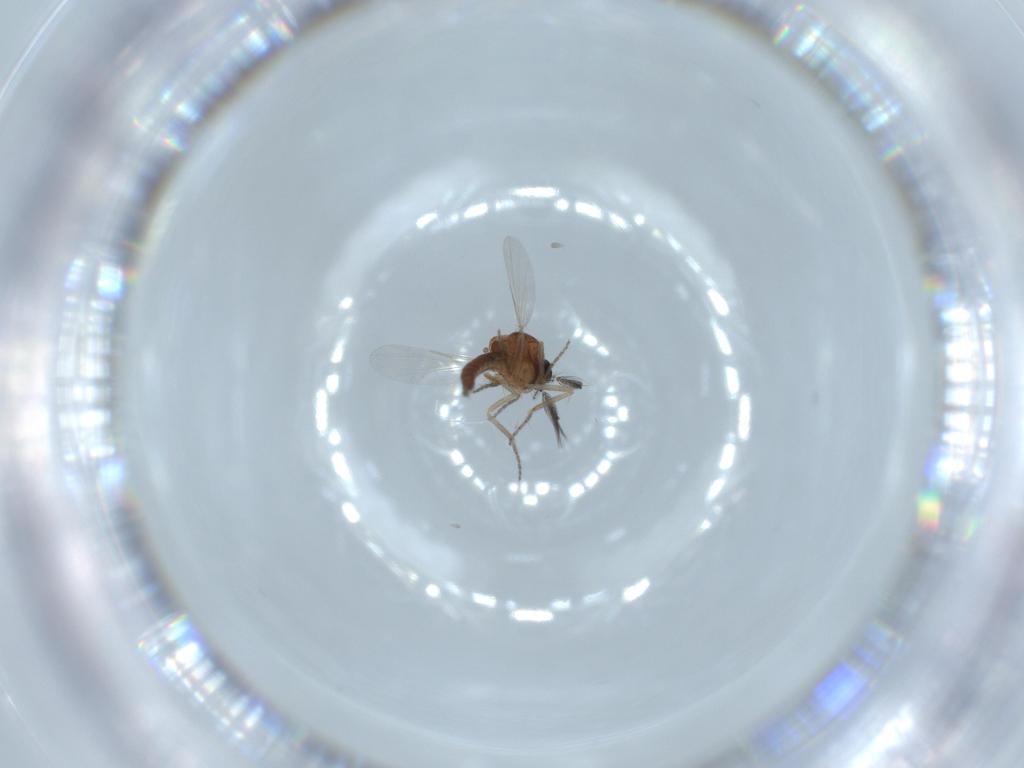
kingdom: Animalia
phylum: Arthropoda
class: Insecta
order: Diptera
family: Ceratopogonidae
